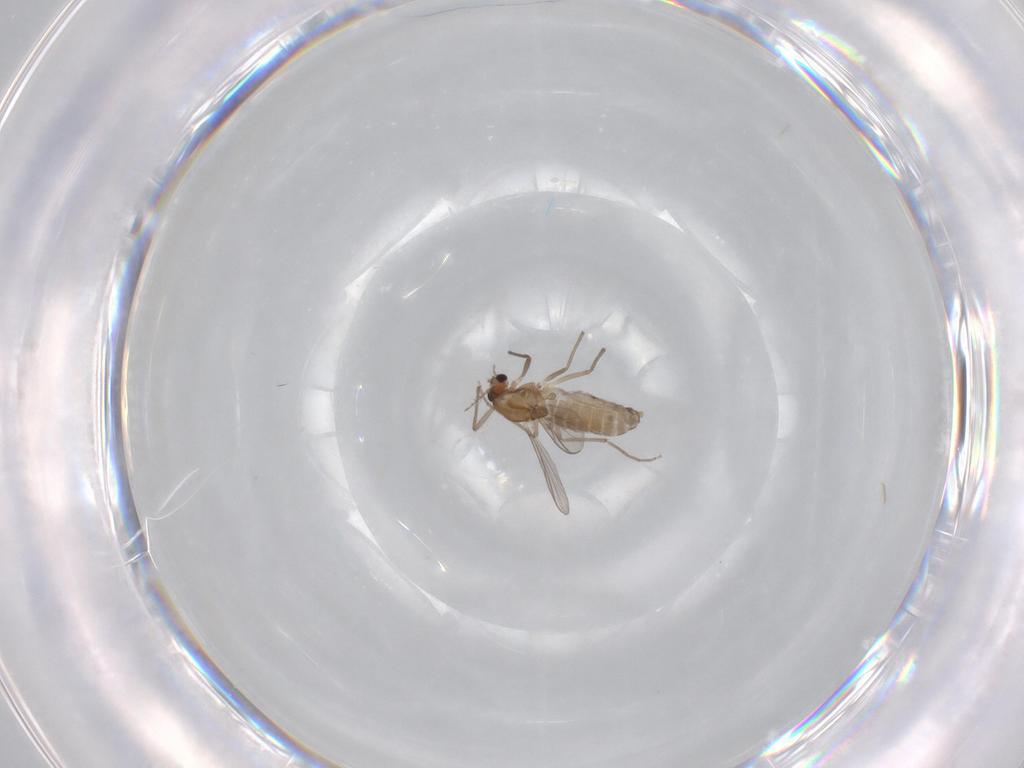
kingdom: Animalia
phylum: Arthropoda
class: Insecta
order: Diptera
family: Chironomidae
